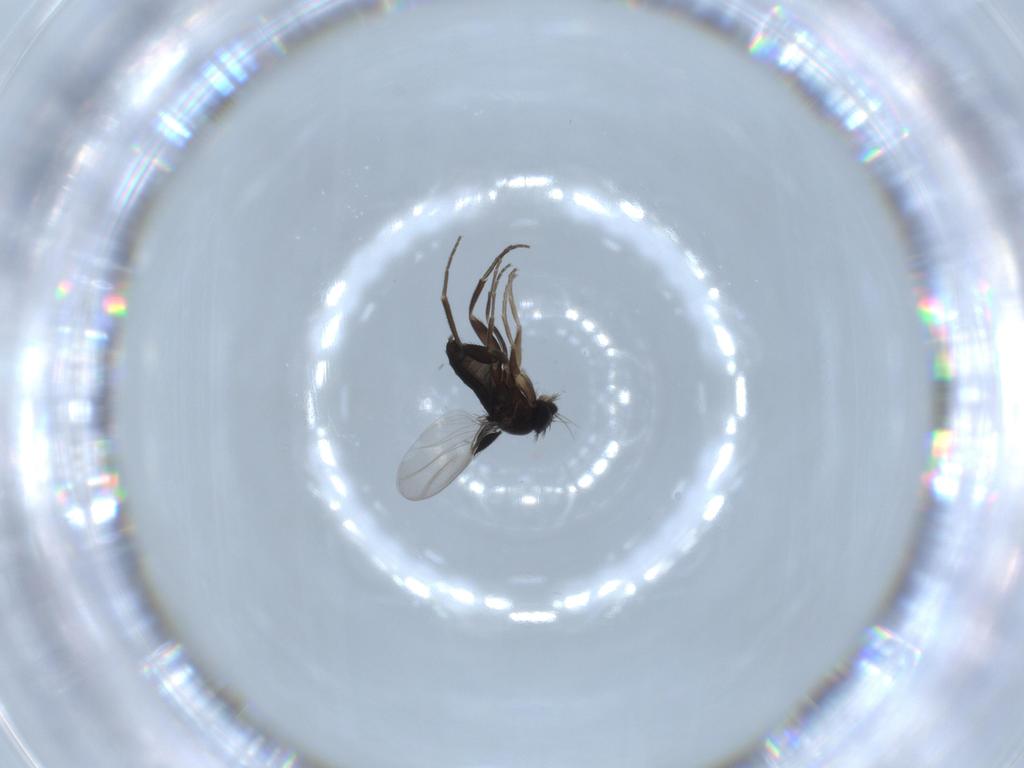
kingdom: Animalia
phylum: Arthropoda
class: Insecta
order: Diptera
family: Phoridae
